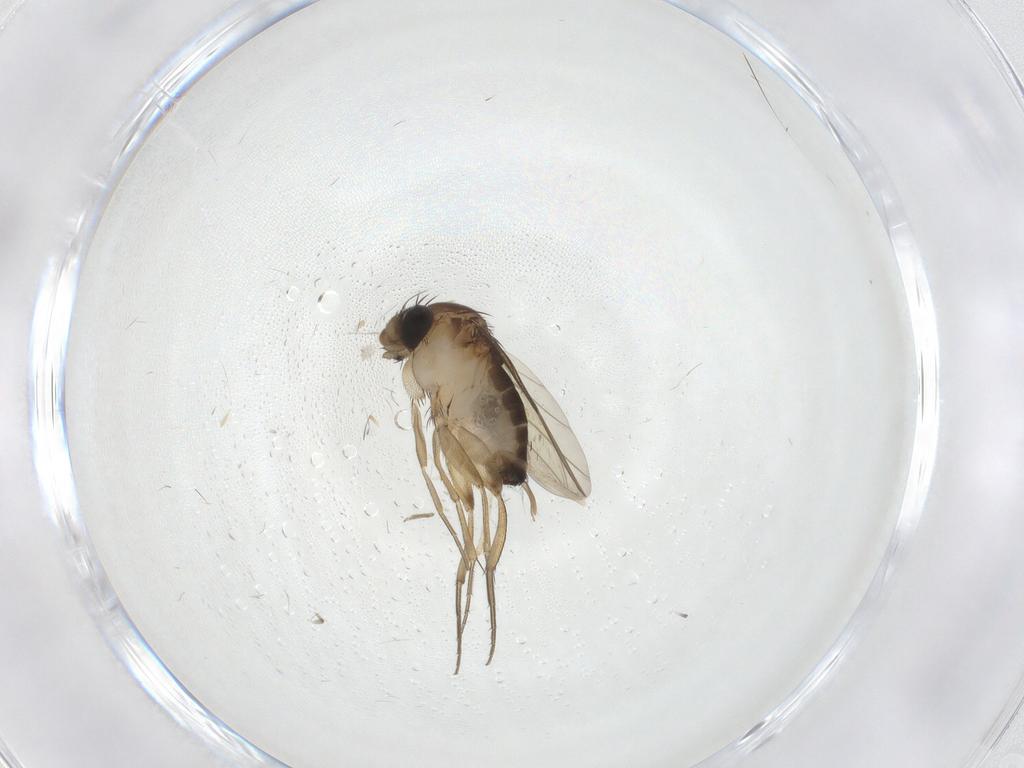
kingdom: Animalia
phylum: Arthropoda
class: Insecta
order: Diptera
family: Phoridae
